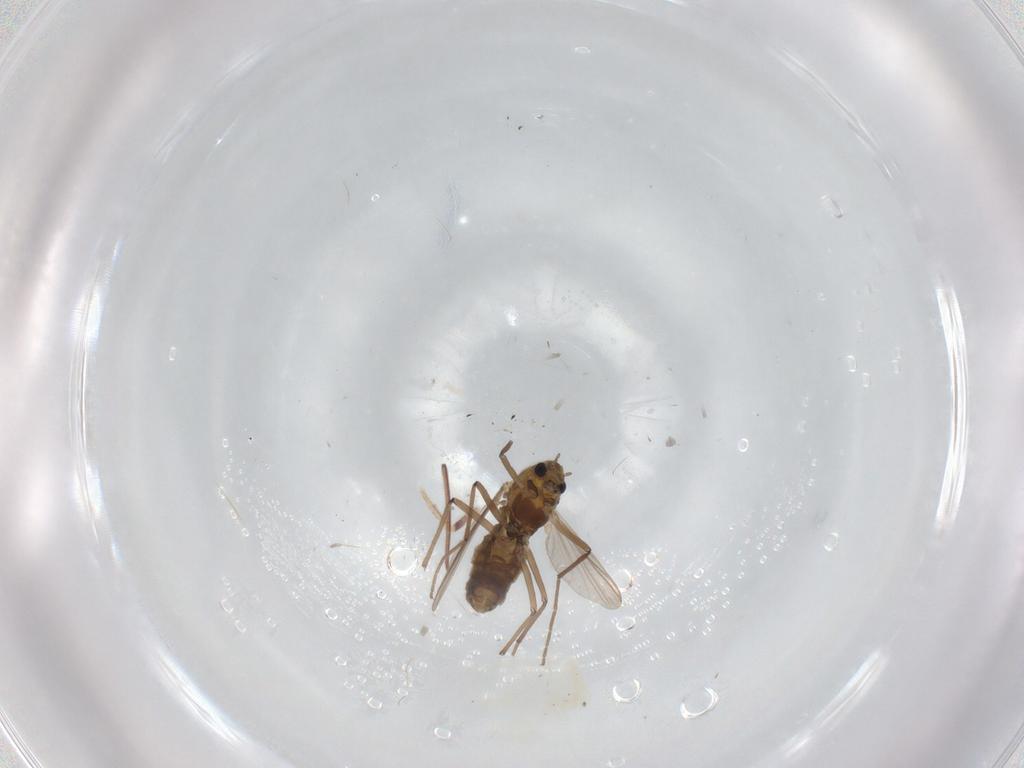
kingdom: Animalia
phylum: Arthropoda
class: Insecta
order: Diptera
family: Chironomidae
